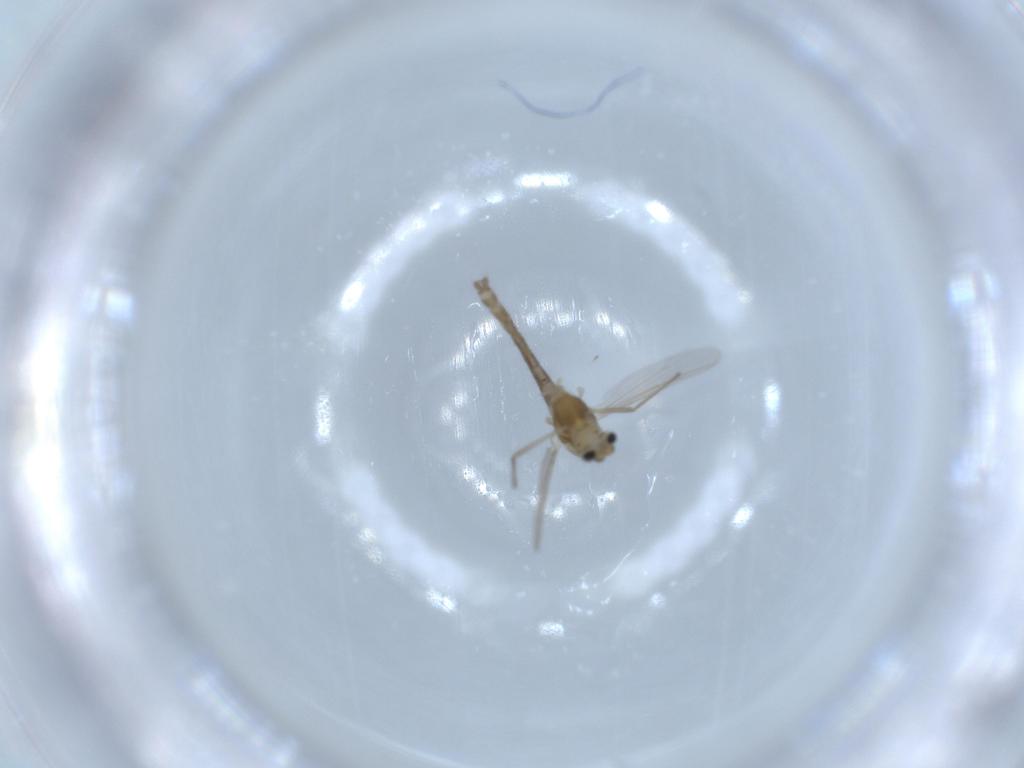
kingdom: Animalia
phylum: Arthropoda
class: Insecta
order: Diptera
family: Chironomidae
